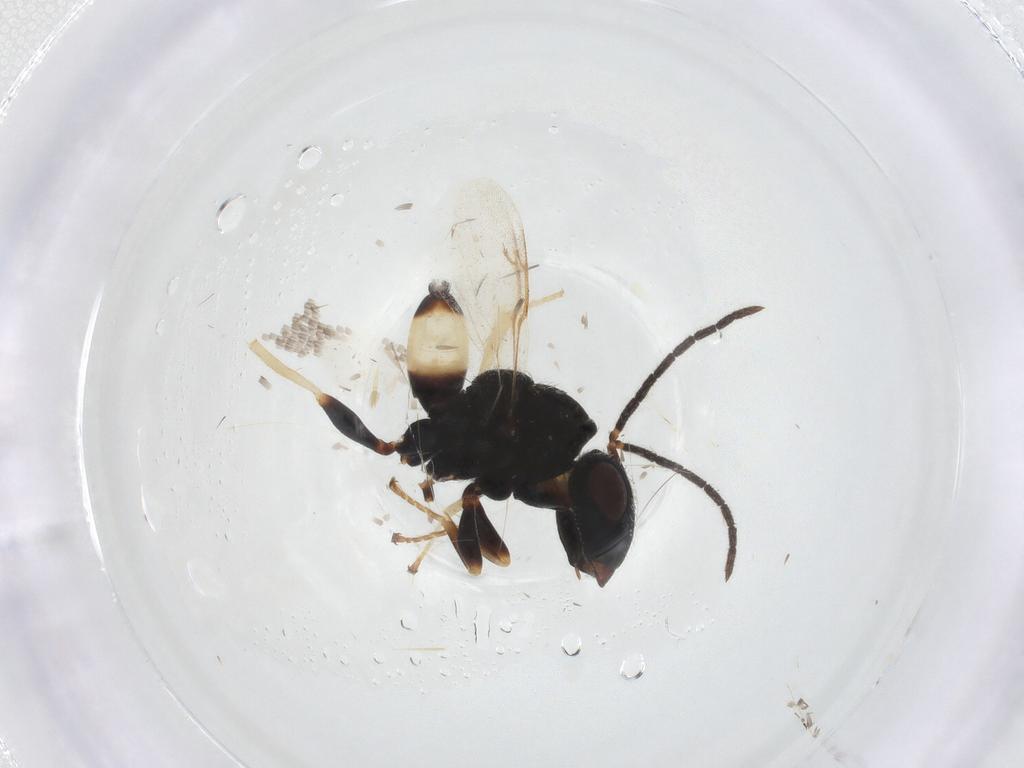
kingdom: Animalia
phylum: Arthropoda
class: Insecta
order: Hymenoptera
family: Pteromalidae
